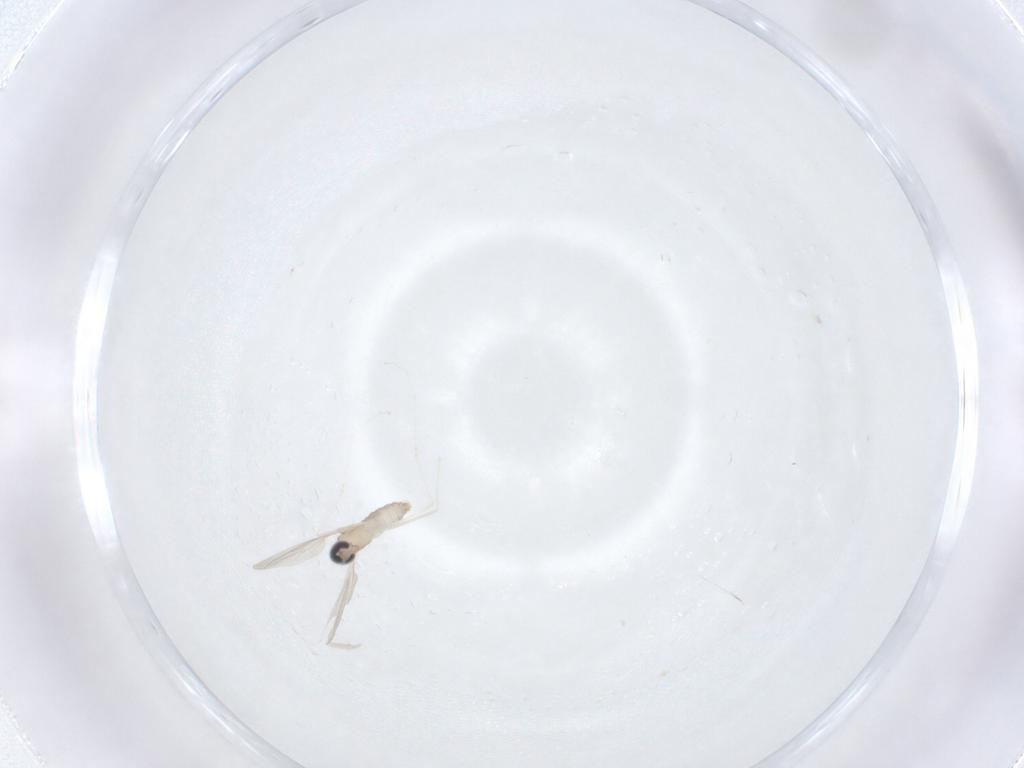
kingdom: Animalia
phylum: Arthropoda
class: Insecta
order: Diptera
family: Cecidomyiidae
